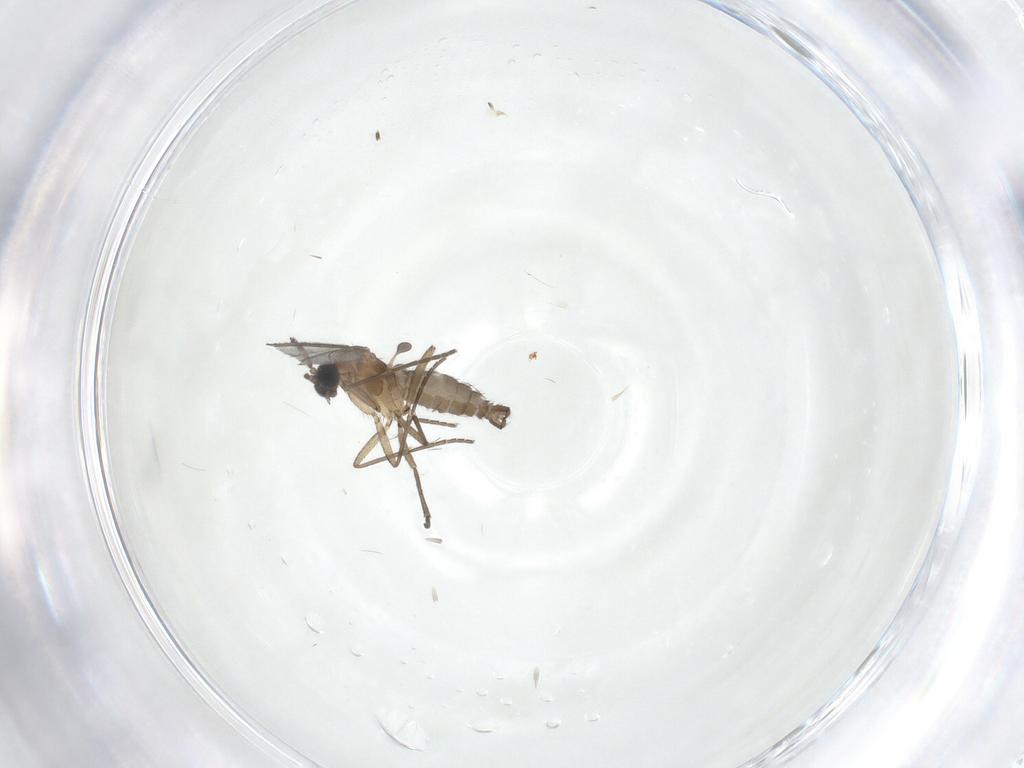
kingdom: Animalia
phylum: Arthropoda
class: Insecta
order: Diptera
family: Sciaridae
